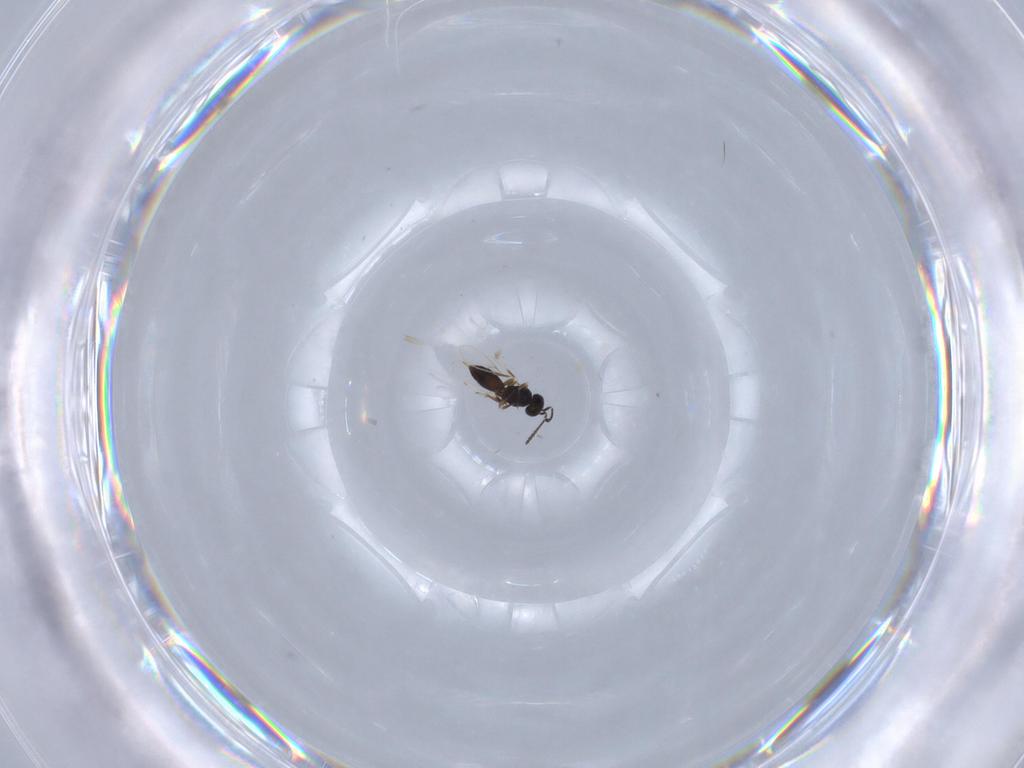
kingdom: Animalia
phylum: Arthropoda
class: Insecta
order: Hymenoptera
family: Scelionidae
